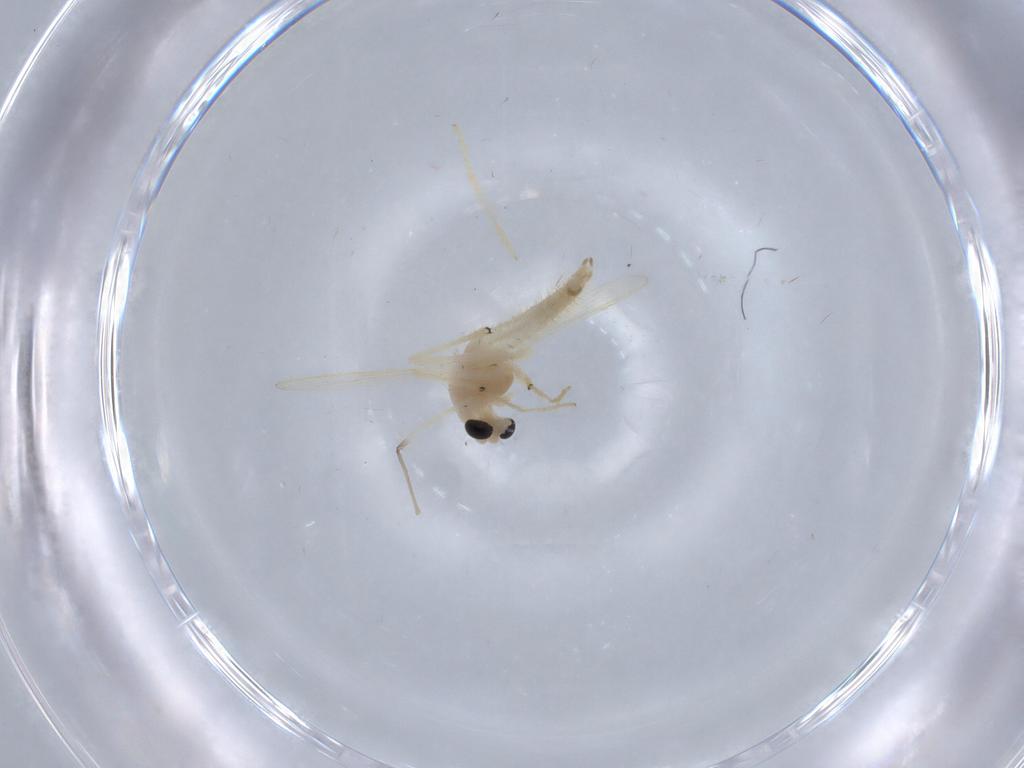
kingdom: Animalia
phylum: Arthropoda
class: Insecta
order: Diptera
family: Chironomidae
